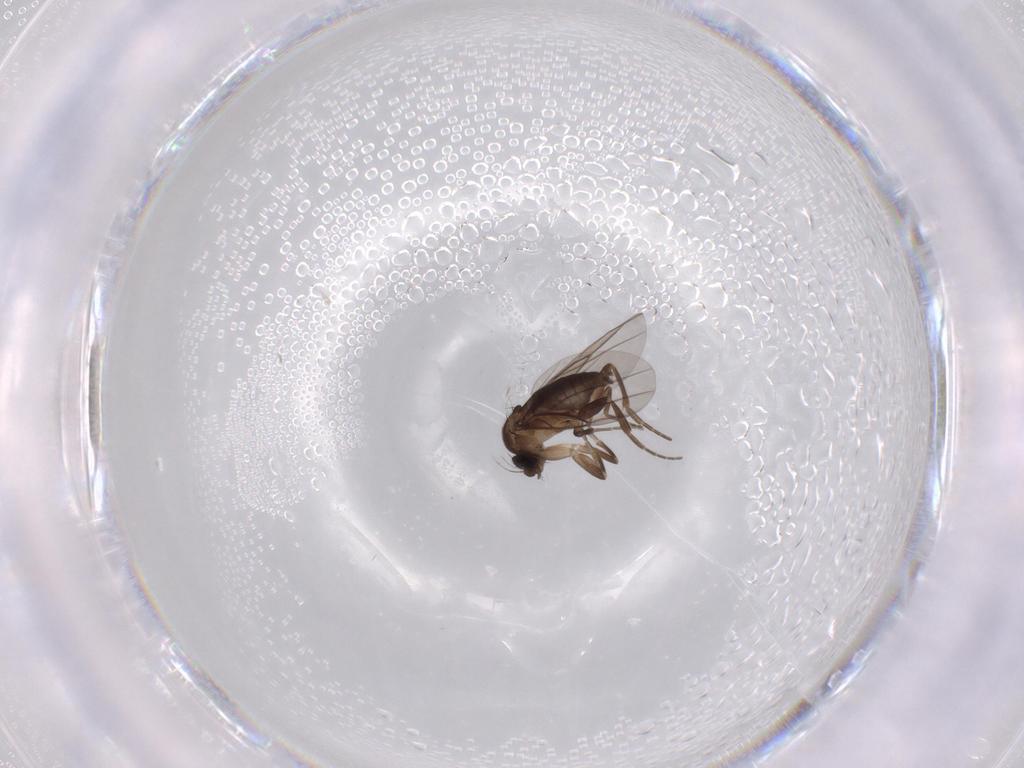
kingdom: Animalia
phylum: Arthropoda
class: Insecta
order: Diptera
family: Phoridae
